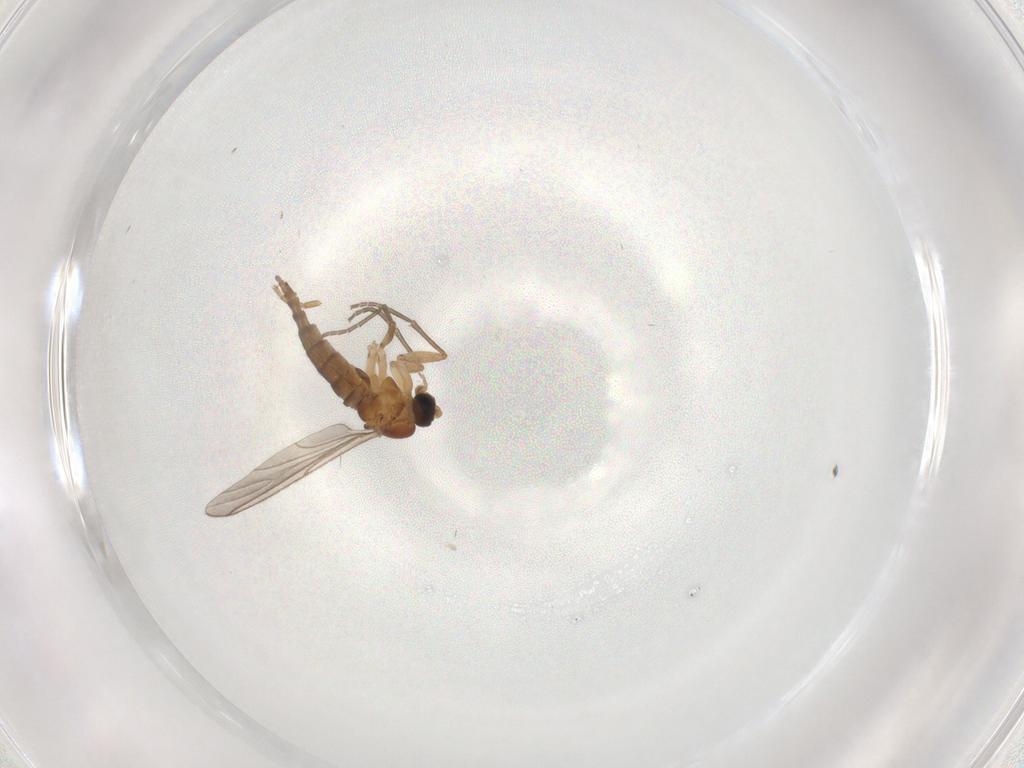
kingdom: Animalia
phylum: Arthropoda
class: Insecta
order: Diptera
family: Sciaridae
